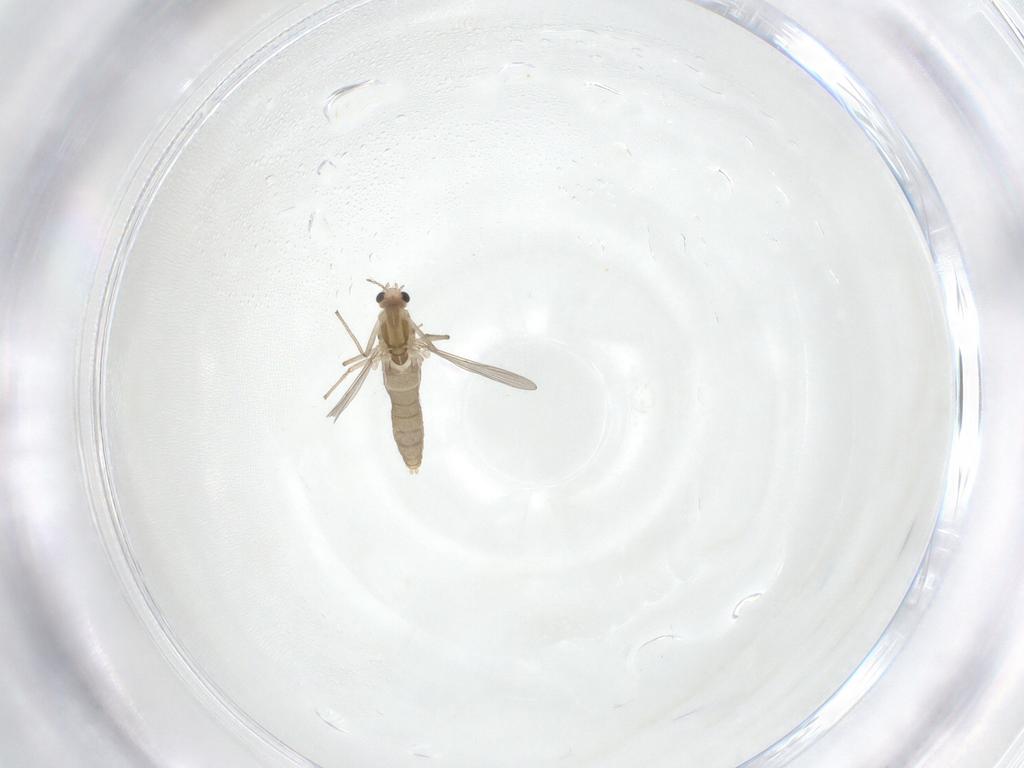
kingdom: Animalia
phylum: Arthropoda
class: Insecta
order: Diptera
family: Chironomidae
